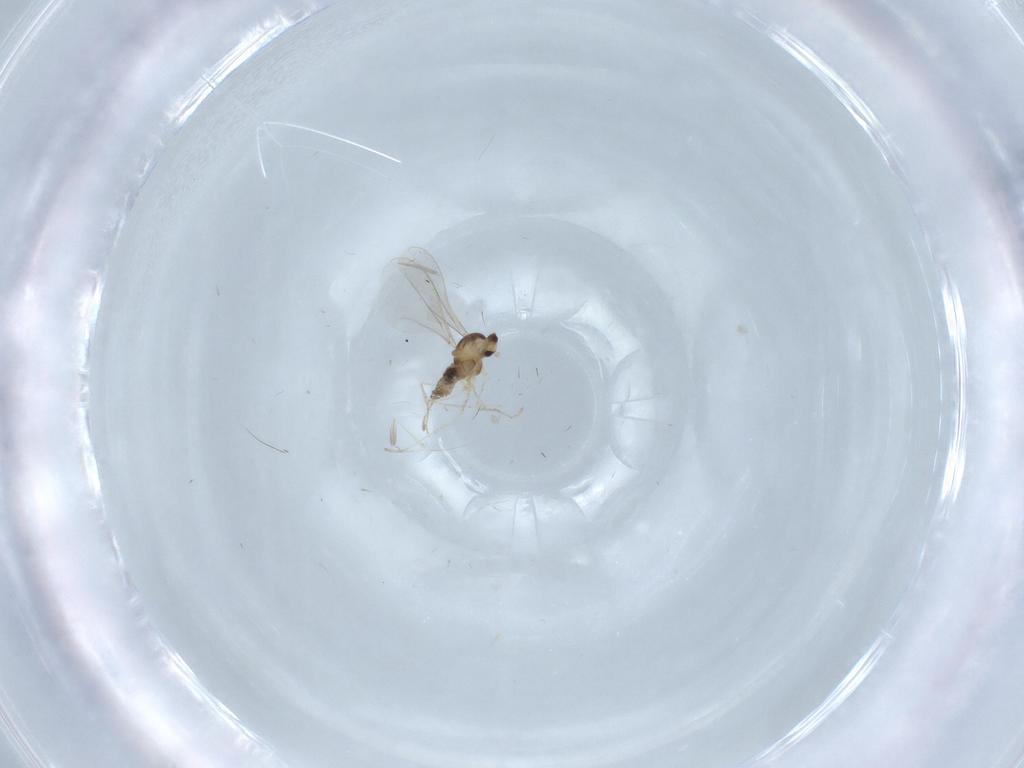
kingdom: Animalia
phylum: Arthropoda
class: Insecta
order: Diptera
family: Cecidomyiidae
